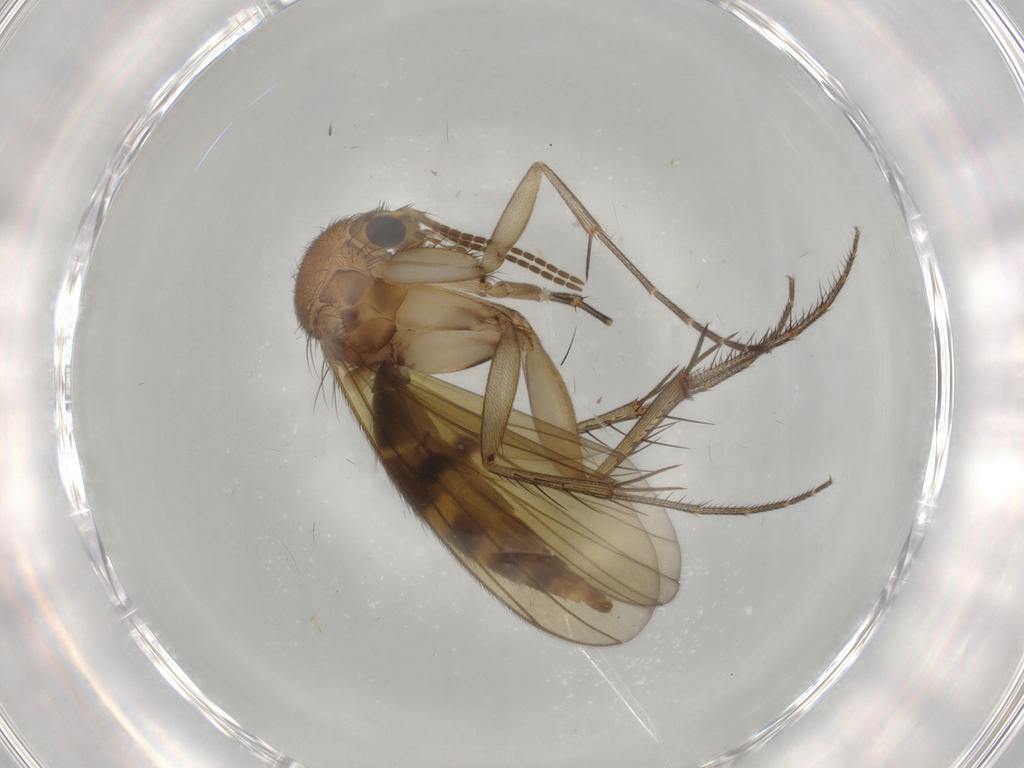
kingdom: Animalia
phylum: Arthropoda
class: Insecta
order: Diptera
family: Mycetophilidae
